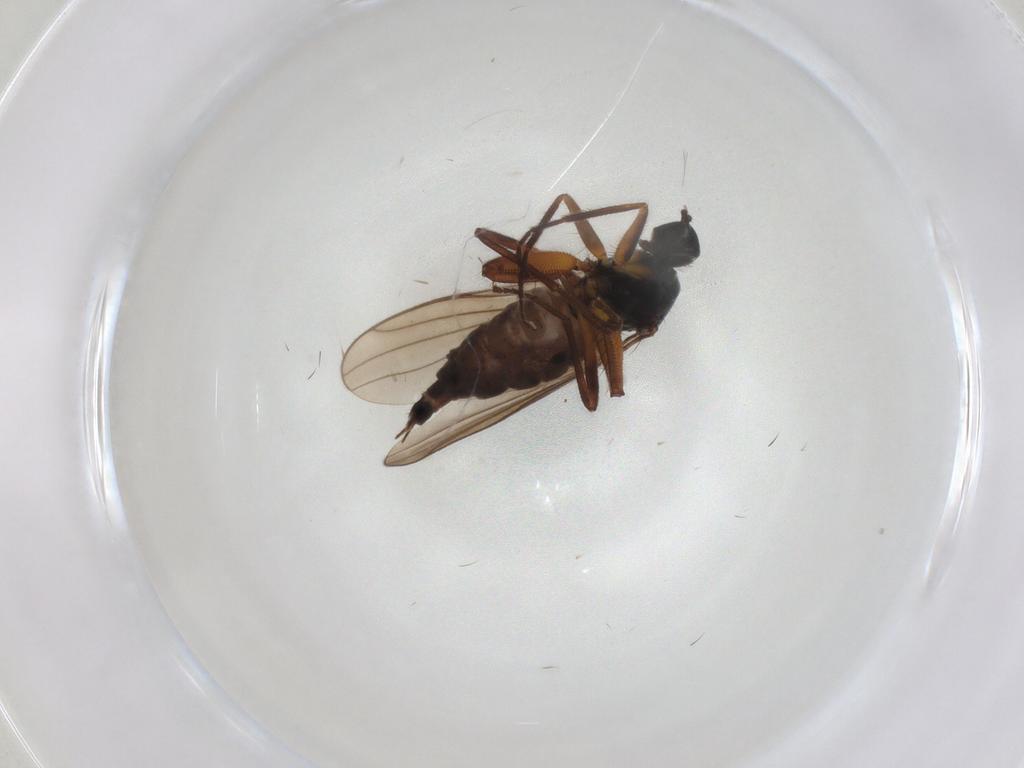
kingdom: Animalia
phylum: Arthropoda
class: Insecta
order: Diptera
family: Hybotidae
